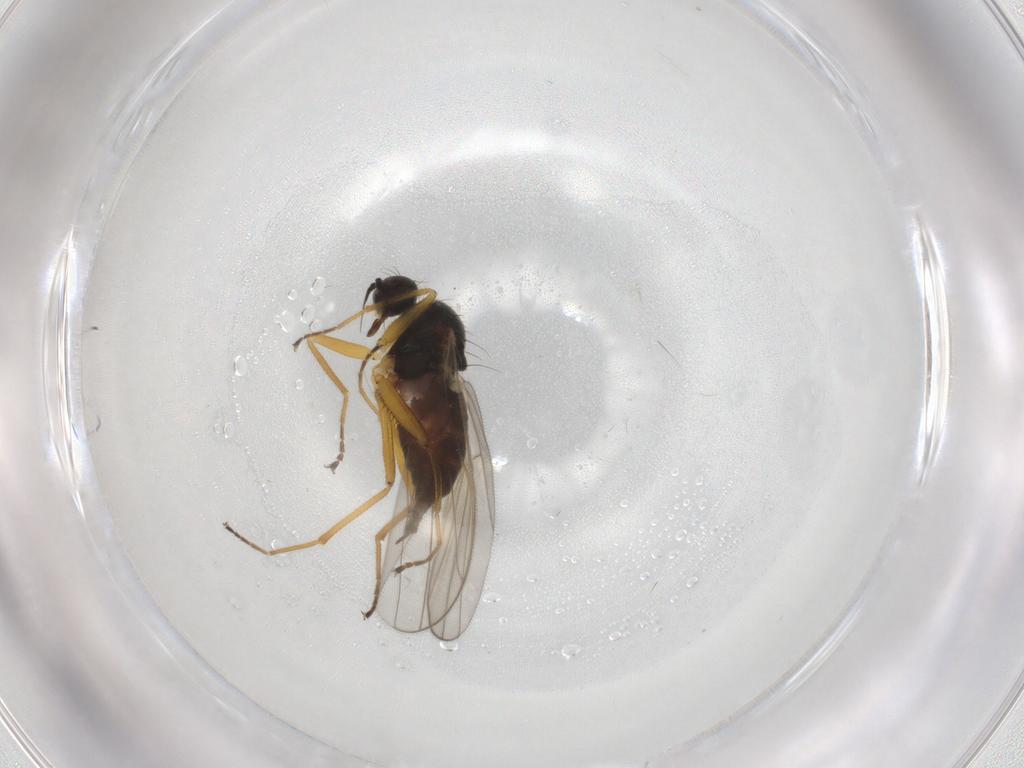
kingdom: Animalia
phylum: Arthropoda
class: Insecta
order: Diptera
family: Hybotidae
